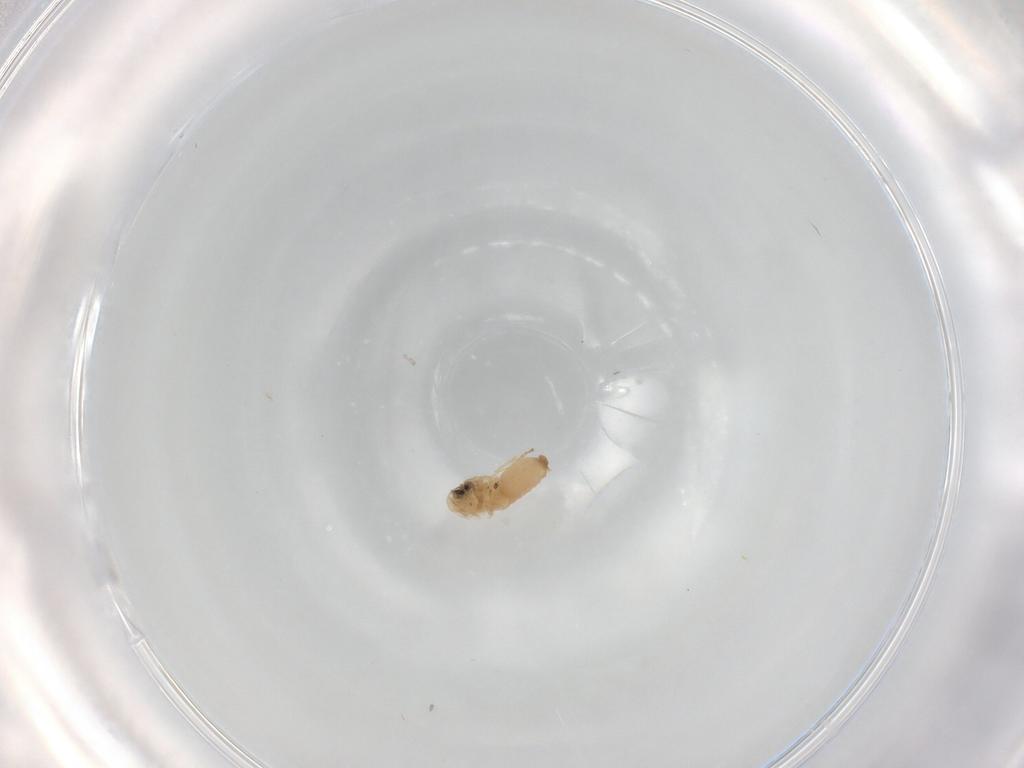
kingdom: Animalia
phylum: Arthropoda
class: Insecta
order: Diptera
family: Psychodidae
